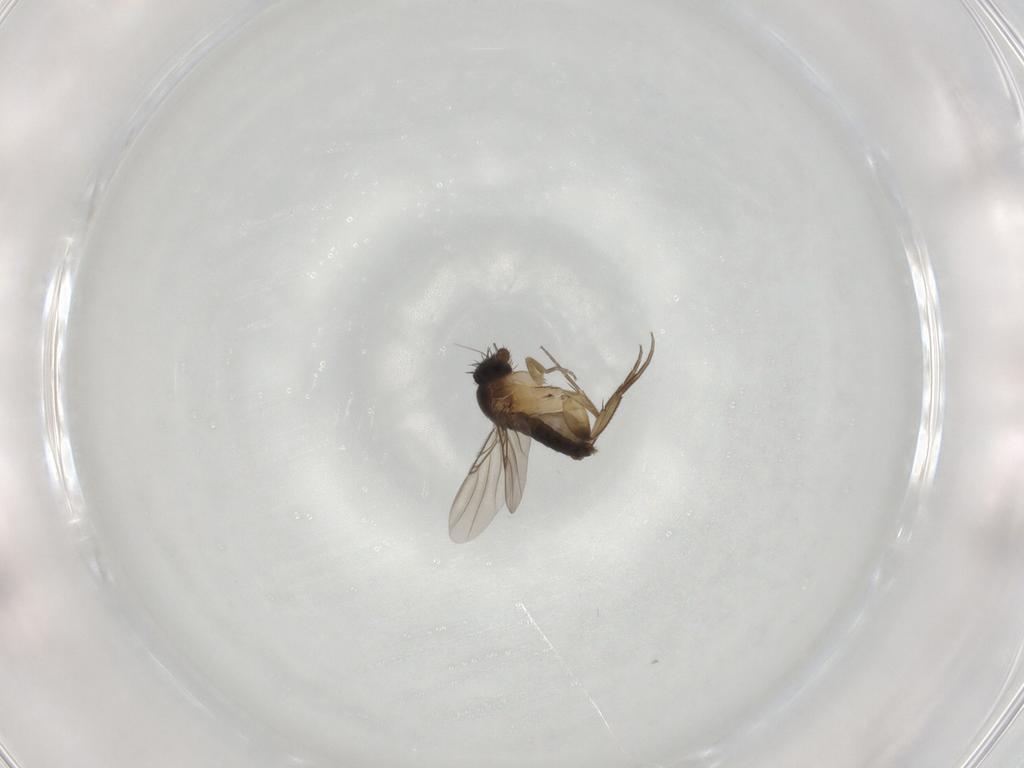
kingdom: Animalia
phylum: Arthropoda
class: Insecta
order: Diptera
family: Phoridae
